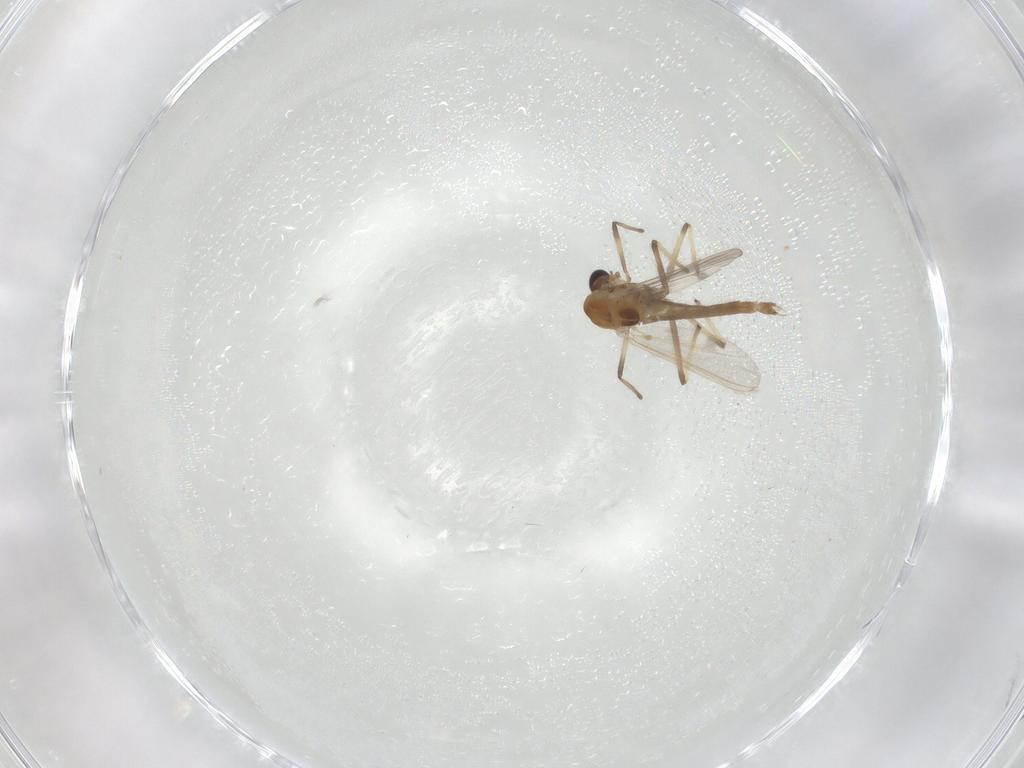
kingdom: Animalia
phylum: Arthropoda
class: Insecta
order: Diptera
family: Chironomidae
